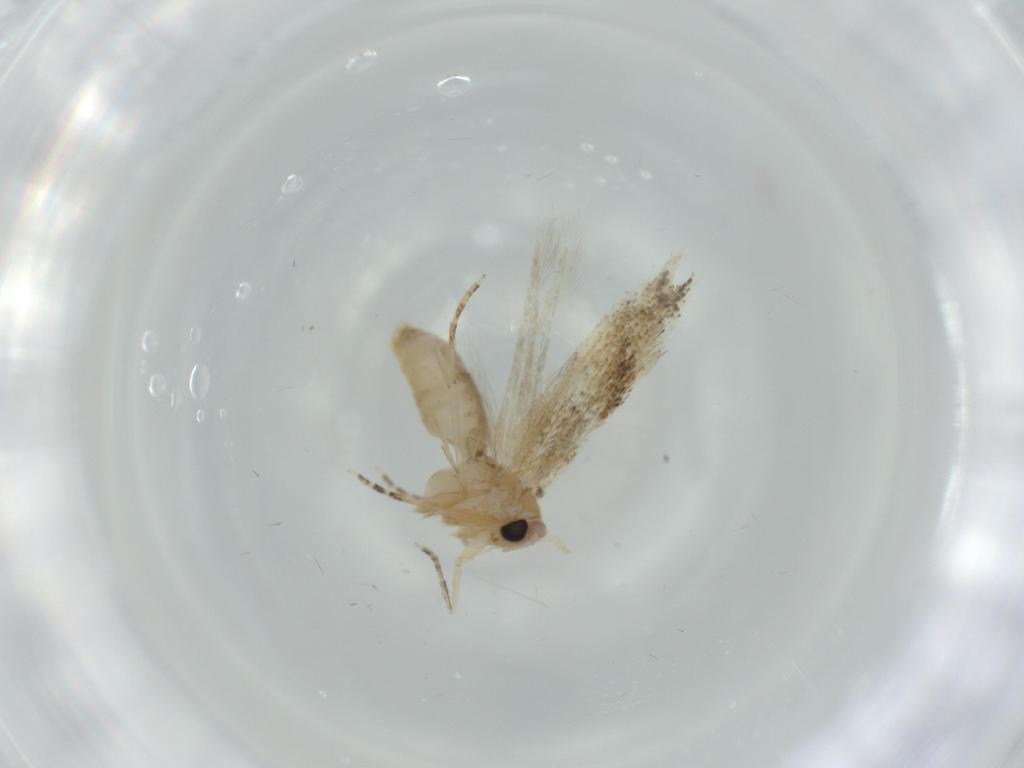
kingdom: Animalia
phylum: Arthropoda
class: Insecta
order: Lepidoptera
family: Bucculatricidae
